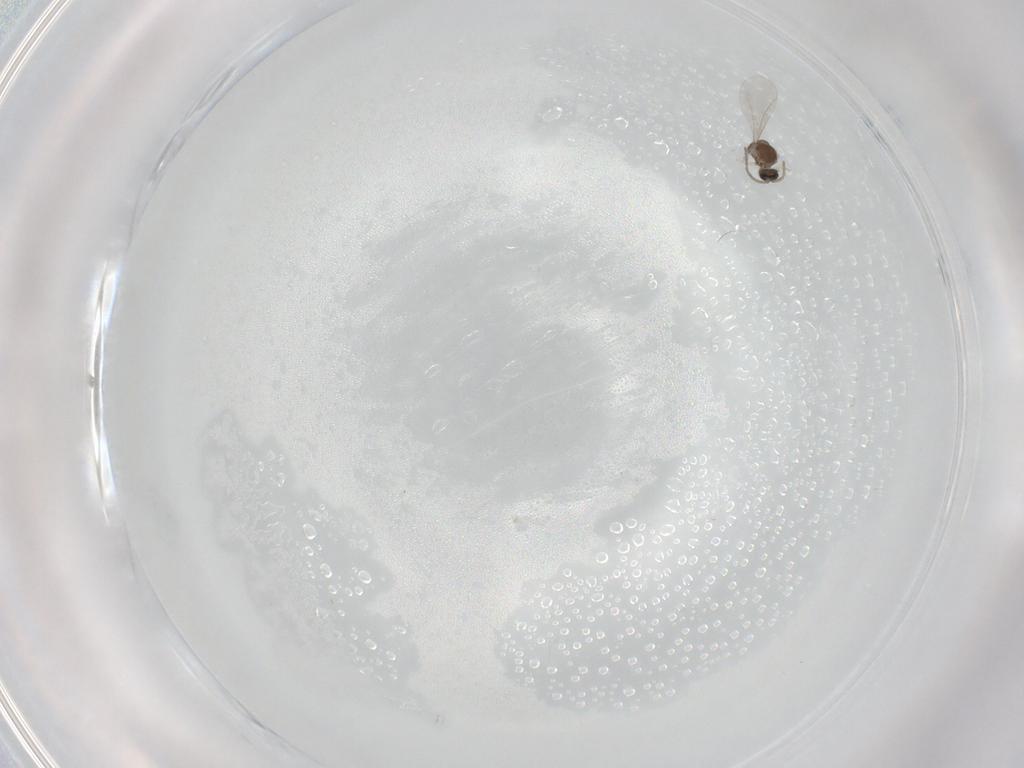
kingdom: Animalia
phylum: Arthropoda
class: Insecta
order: Diptera
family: Cecidomyiidae
